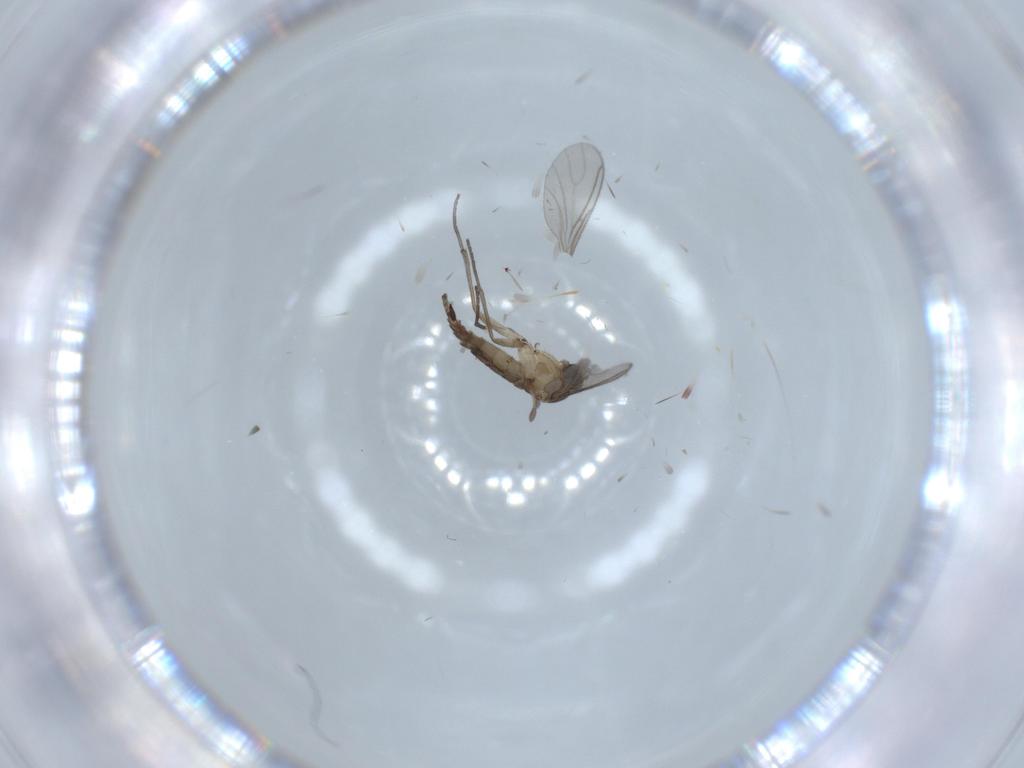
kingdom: Animalia
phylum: Arthropoda
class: Insecta
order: Diptera
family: Sciaridae
